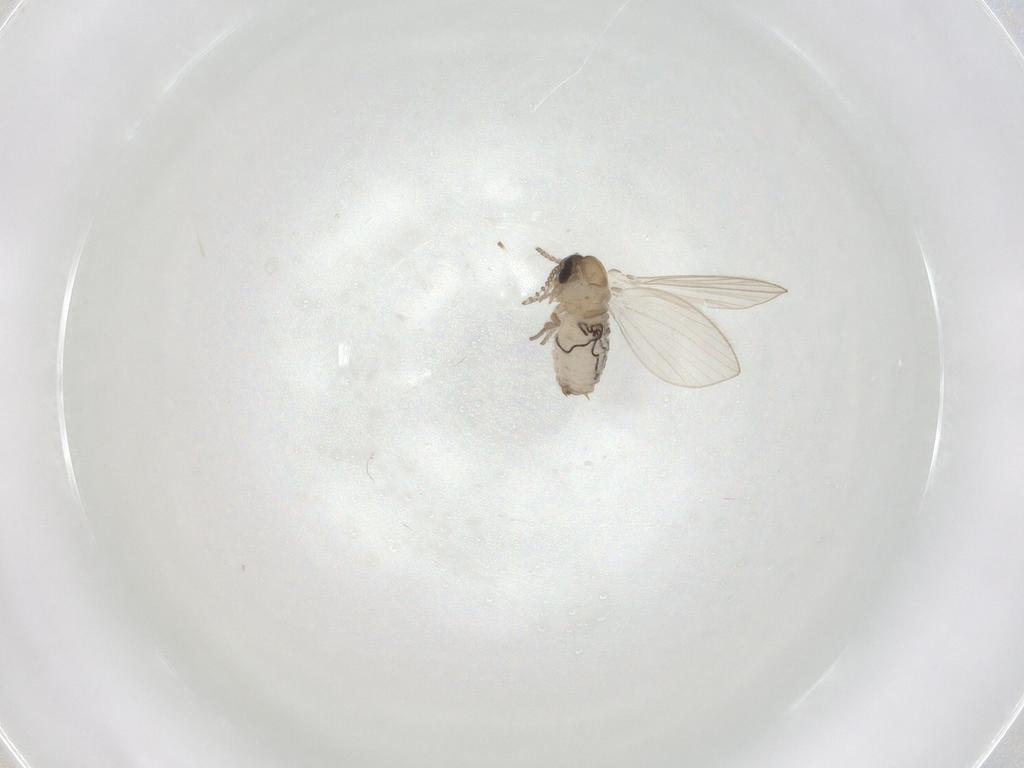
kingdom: Animalia
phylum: Arthropoda
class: Insecta
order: Diptera
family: Psychodidae
